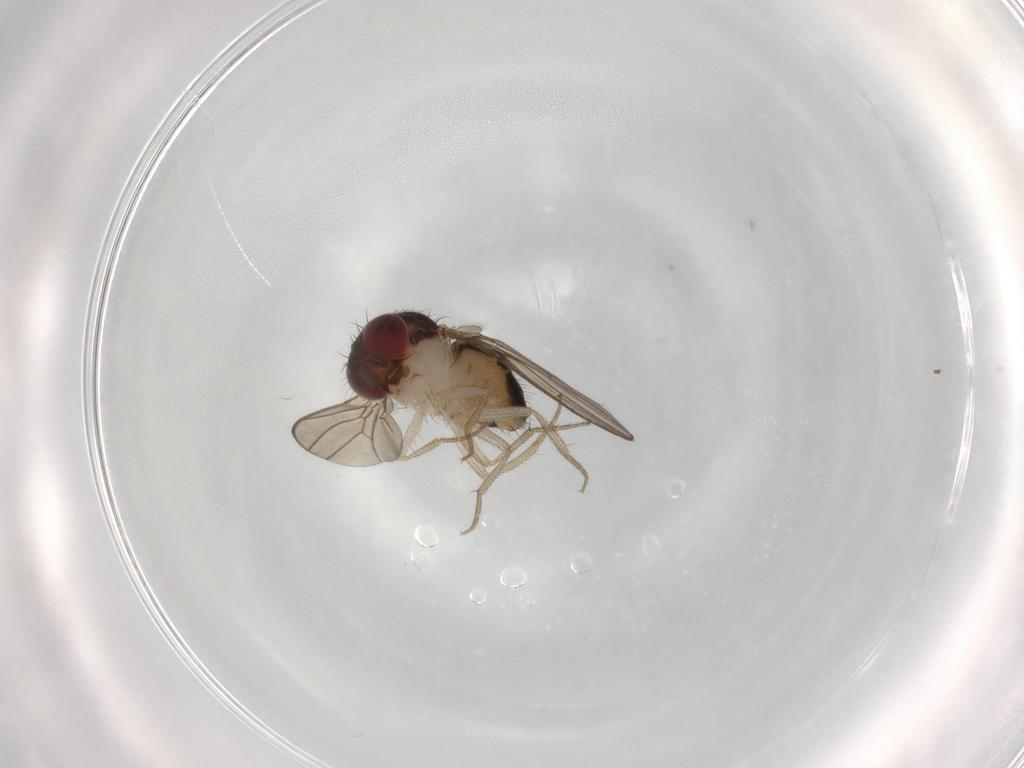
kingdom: Animalia
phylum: Arthropoda
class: Insecta
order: Diptera
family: Drosophilidae
